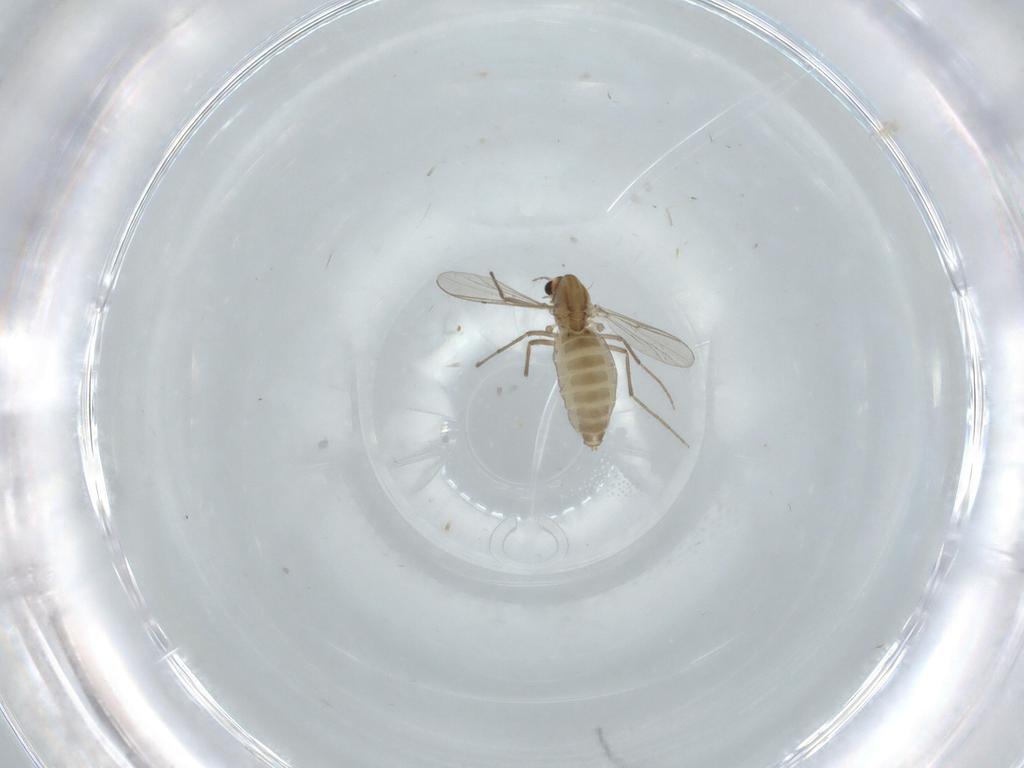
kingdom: Animalia
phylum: Arthropoda
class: Insecta
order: Diptera
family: Chironomidae
